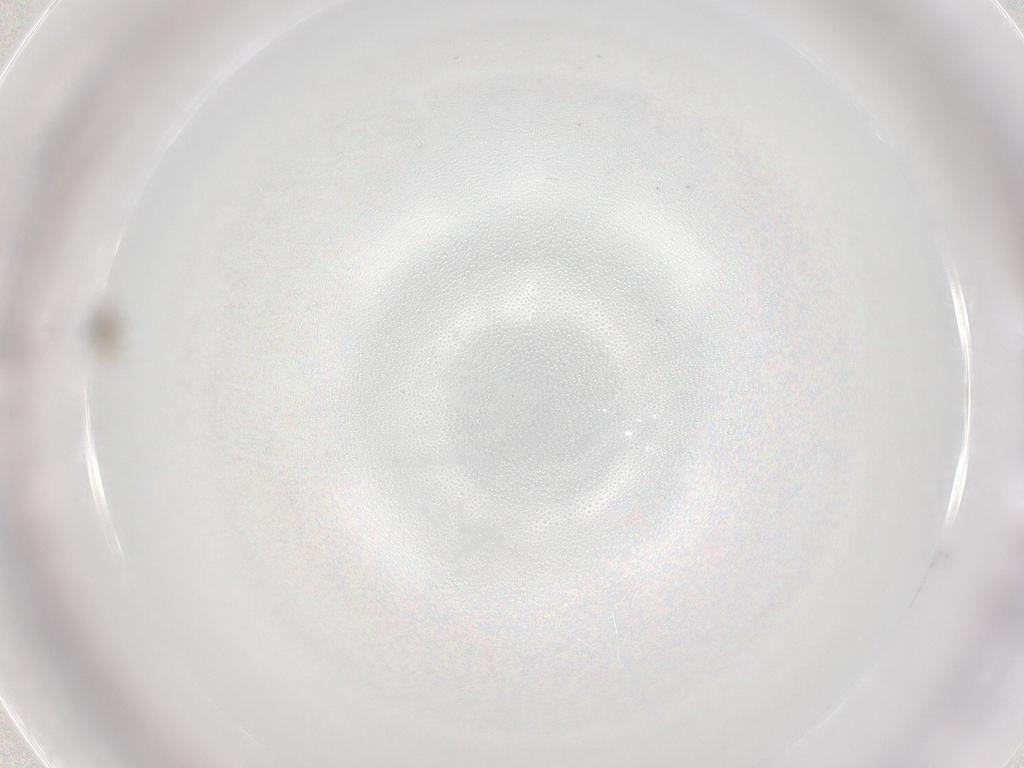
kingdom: Animalia
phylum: Arthropoda
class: Insecta
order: Diptera
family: Cecidomyiidae
